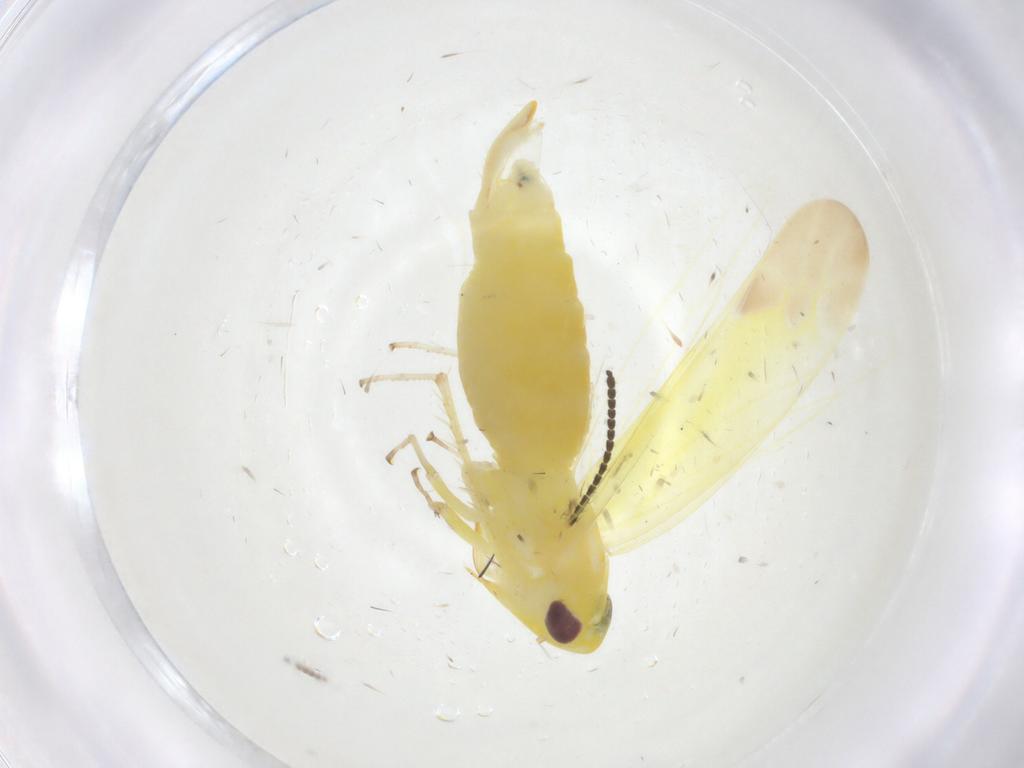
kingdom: Animalia
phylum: Arthropoda
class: Insecta
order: Hemiptera
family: Cicadellidae
